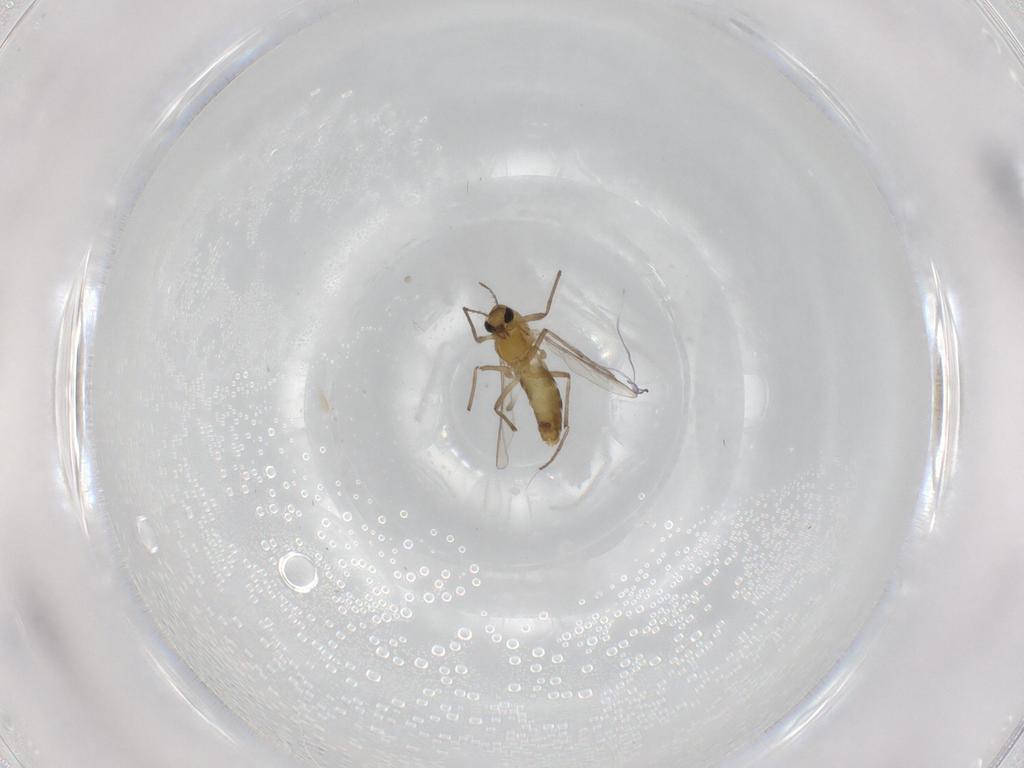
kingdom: Animalia
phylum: Arthropoda
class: Insecta
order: Diptera
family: Chironomidae
